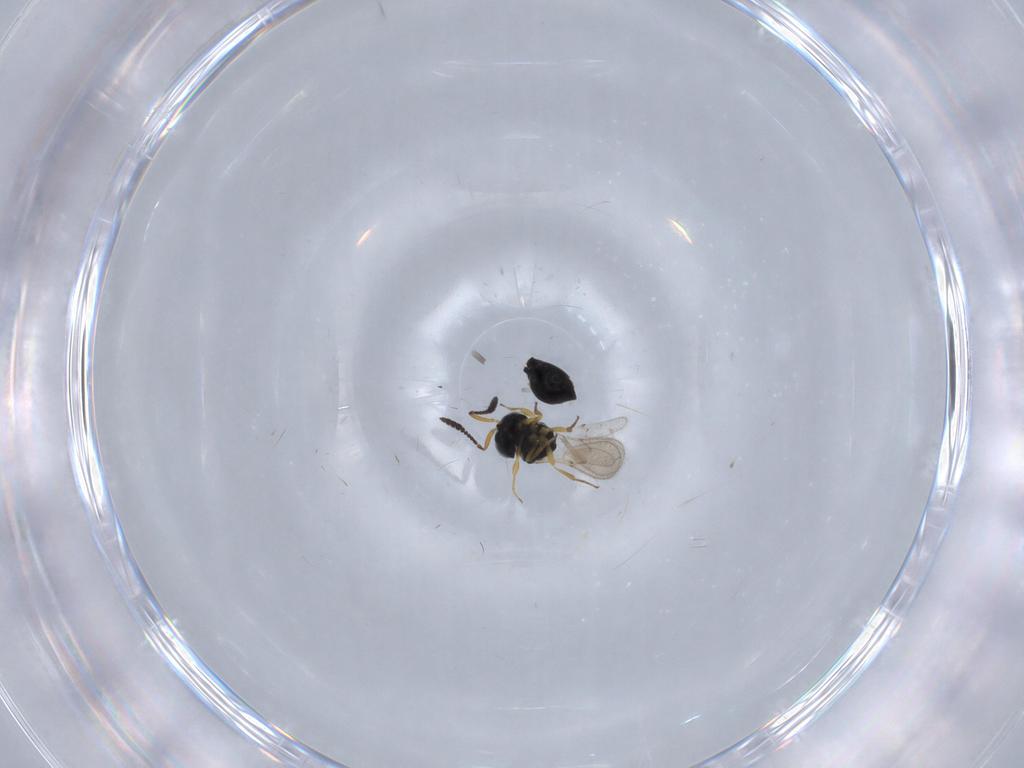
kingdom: Animalia
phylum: Arthropoda
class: Insecta
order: Hymenoptera
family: Scelionidae
